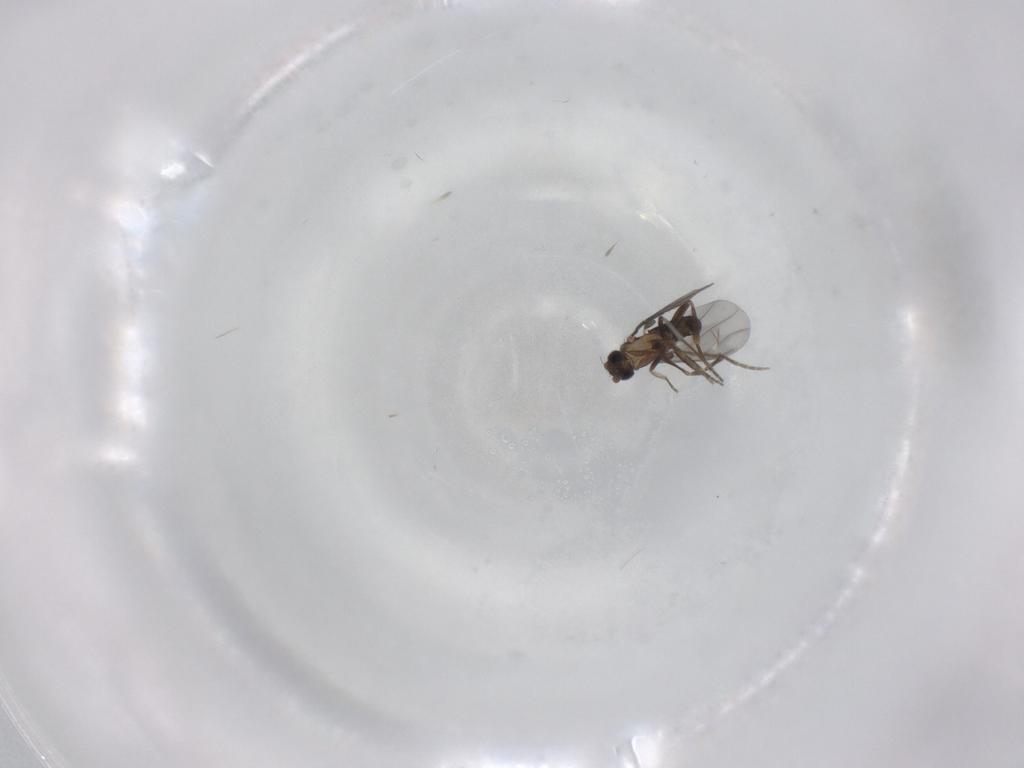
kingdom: Animalia
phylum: Arthropoda
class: Insecta
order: Diptera
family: Phoridae
